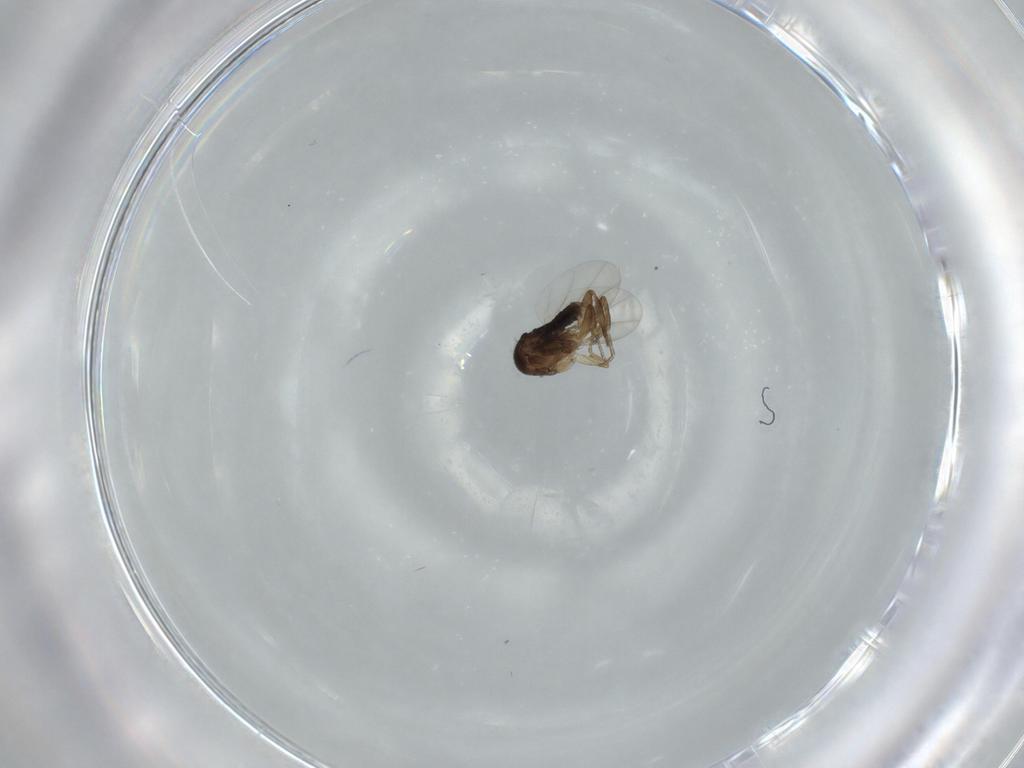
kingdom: Animalia
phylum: Arthropoda
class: Insecta
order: Diptera
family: Phoridae
